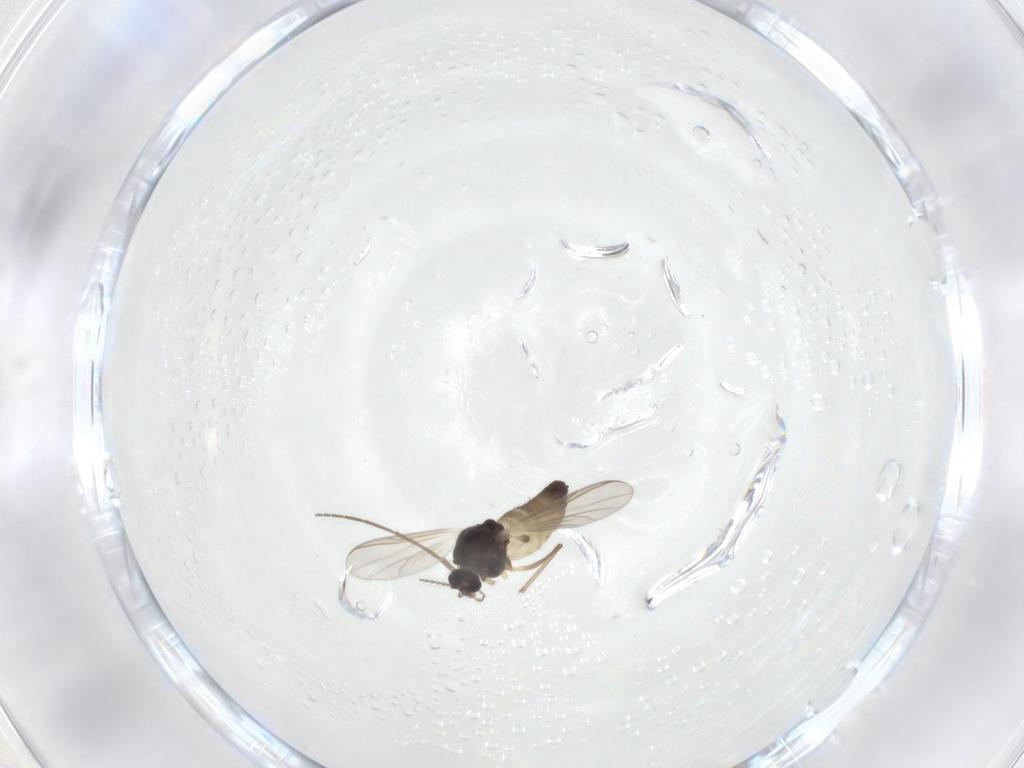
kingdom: Animalia
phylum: Arthropoda
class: Insecta
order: Diptera
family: Chironomidae
